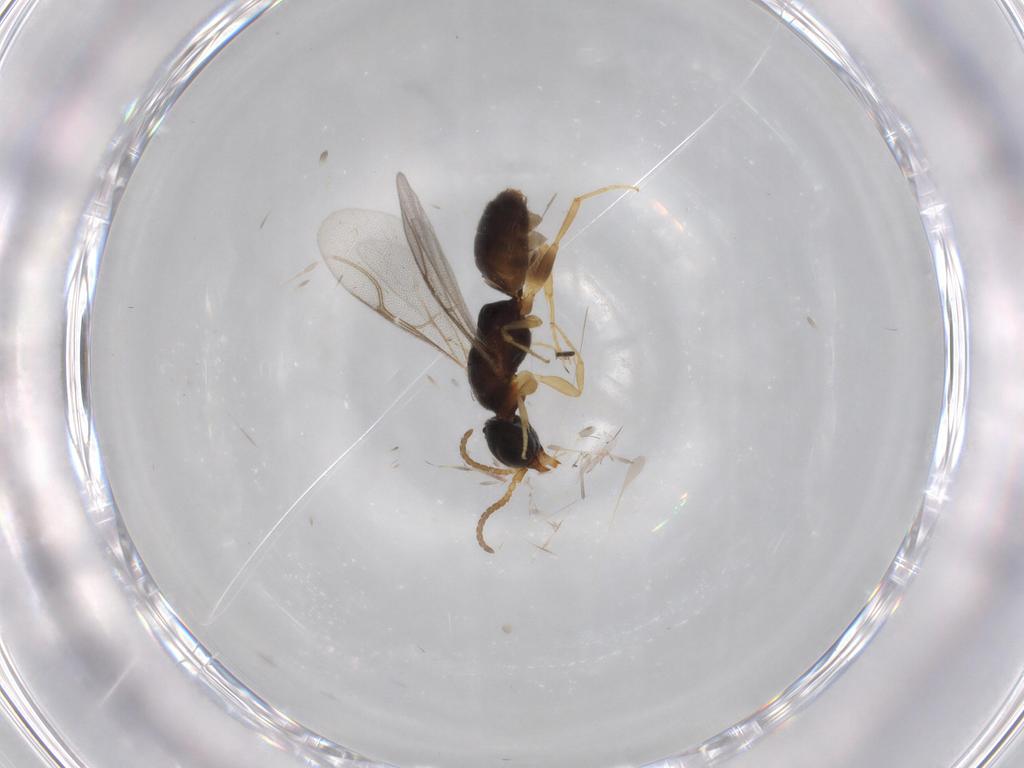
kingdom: Animalia
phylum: Arthropoda
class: Insecta
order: Hymenoptera
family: Bethylidae
